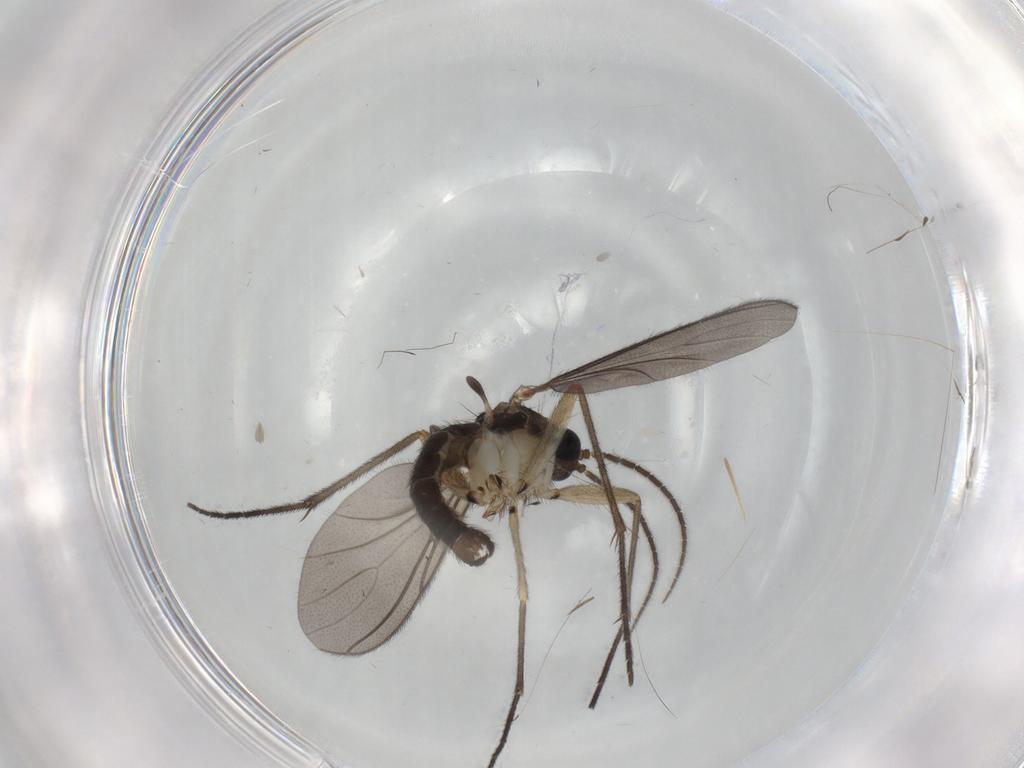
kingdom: Animalia
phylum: Arthropoda
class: Insecta
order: Diptera
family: Sciaridae
